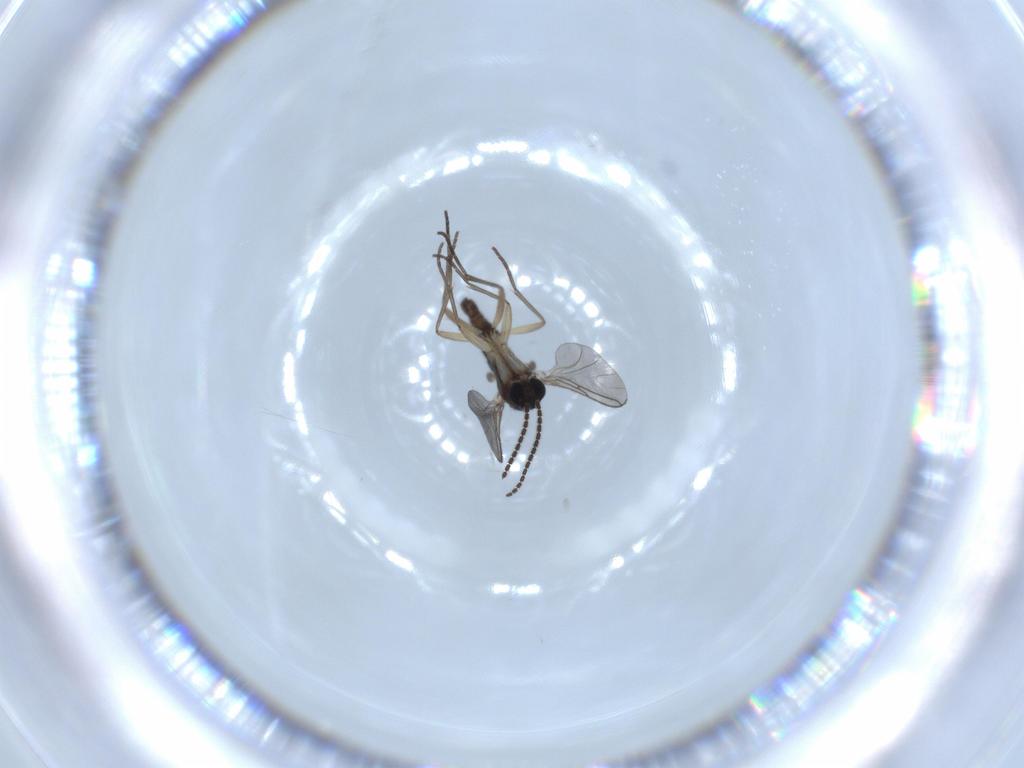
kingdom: Animalia
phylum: Arthropoda
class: Insecta
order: Diptera
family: Sciaridae
